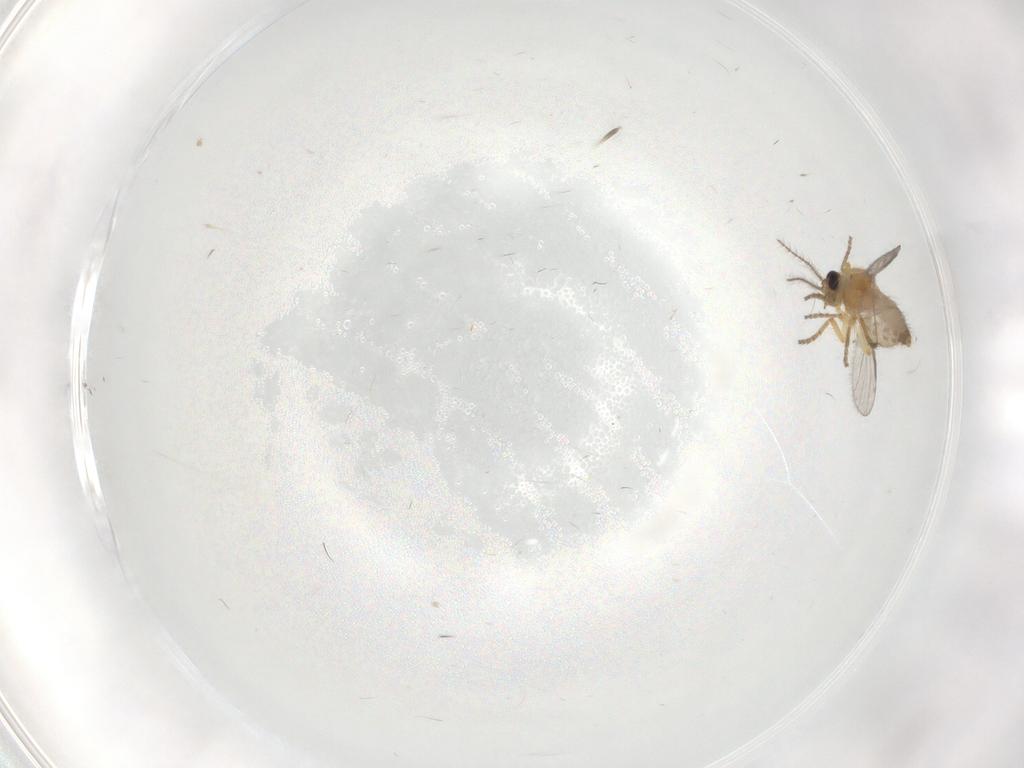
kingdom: Animalia
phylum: Arthropoda
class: Insecta
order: Diptera
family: Ceratopogonidae
